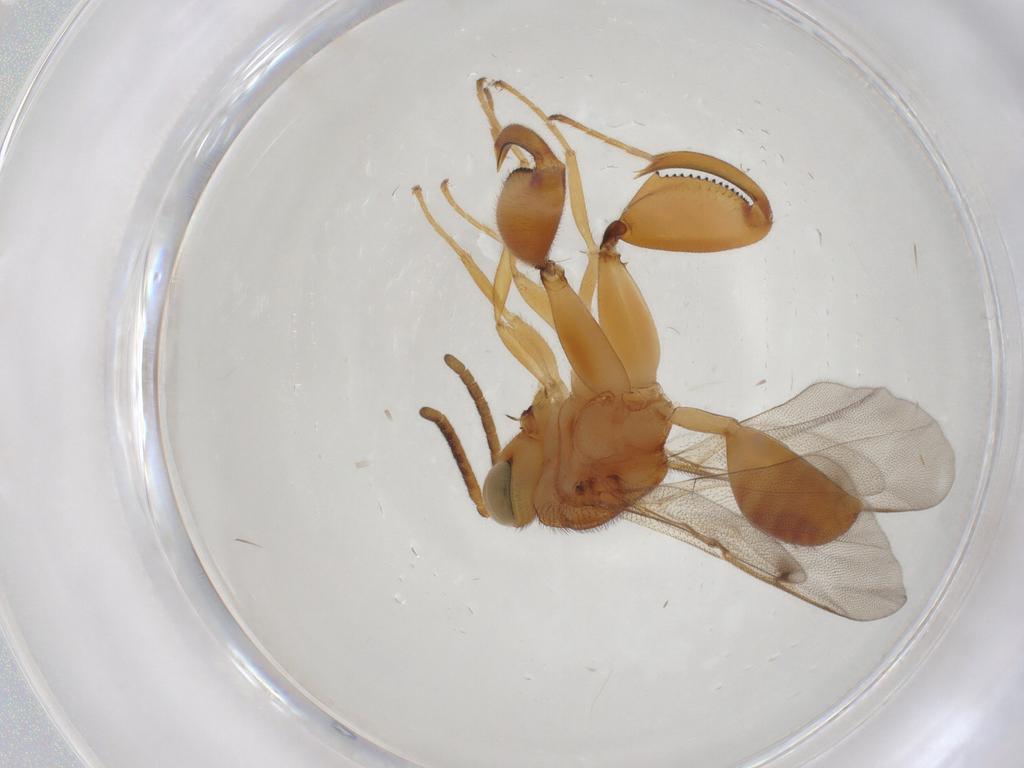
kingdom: Animalia
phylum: Arthropoda
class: Insecta
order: Hymenoptera
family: Chalcididae
